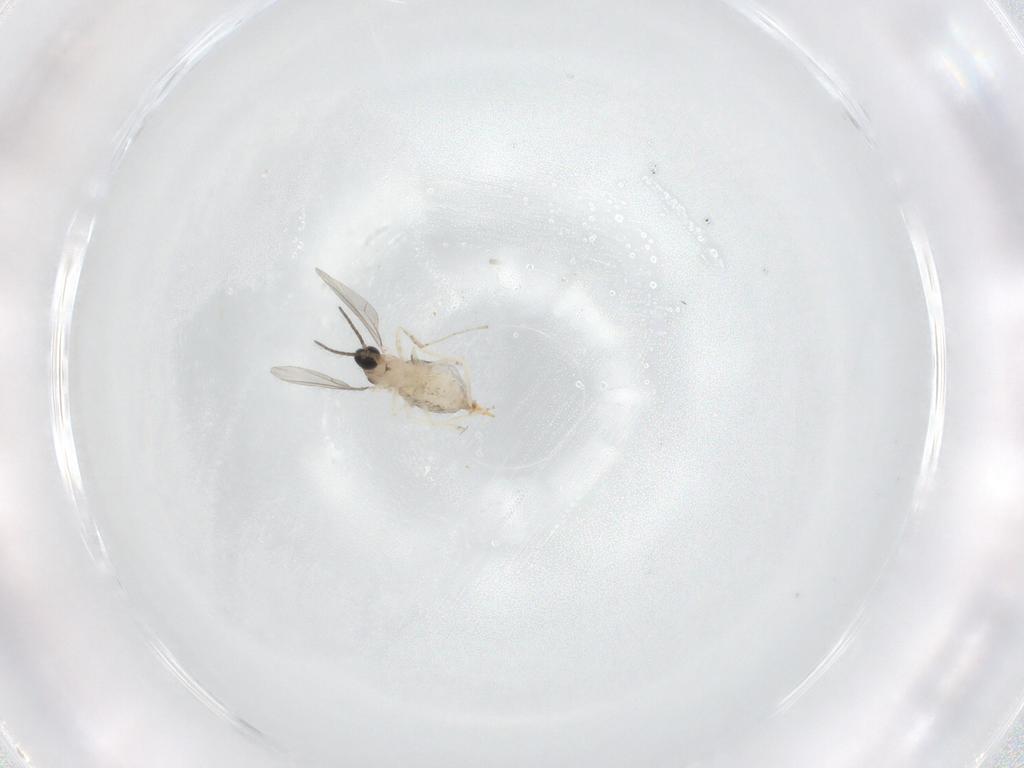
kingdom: Animalia
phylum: Arthropoda
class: Insecta
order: Diptera
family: Cecidomyiidae
